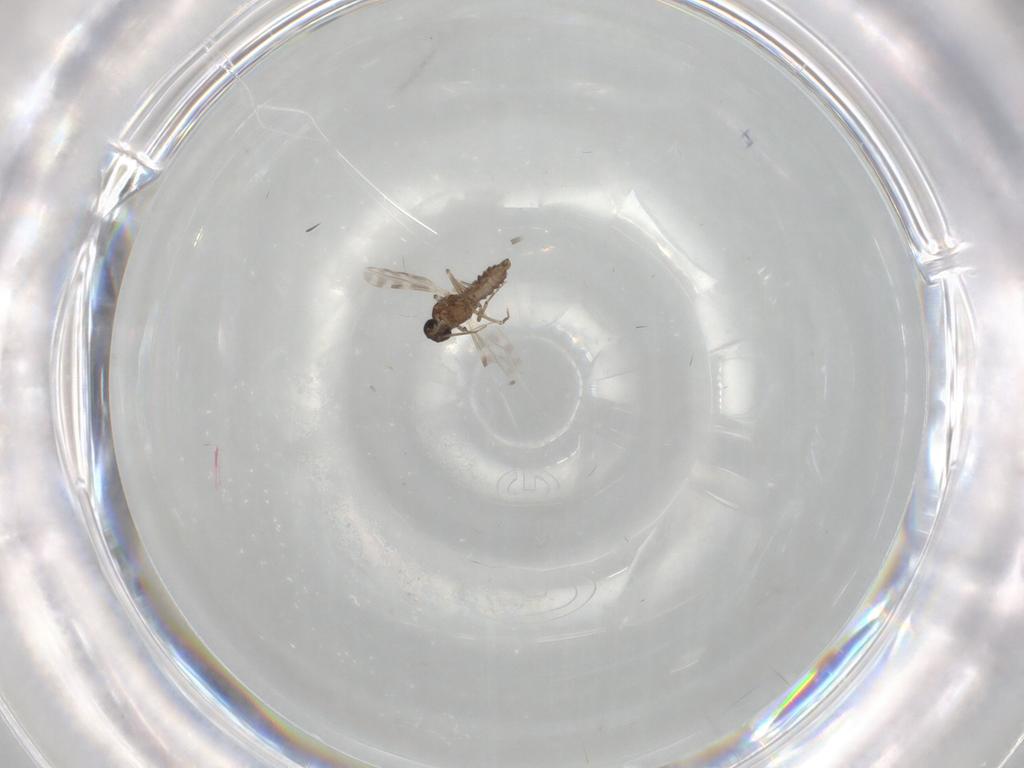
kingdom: Animalia
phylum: Arthropoda
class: Insecta
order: Diptera
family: Ceratopogonidae
